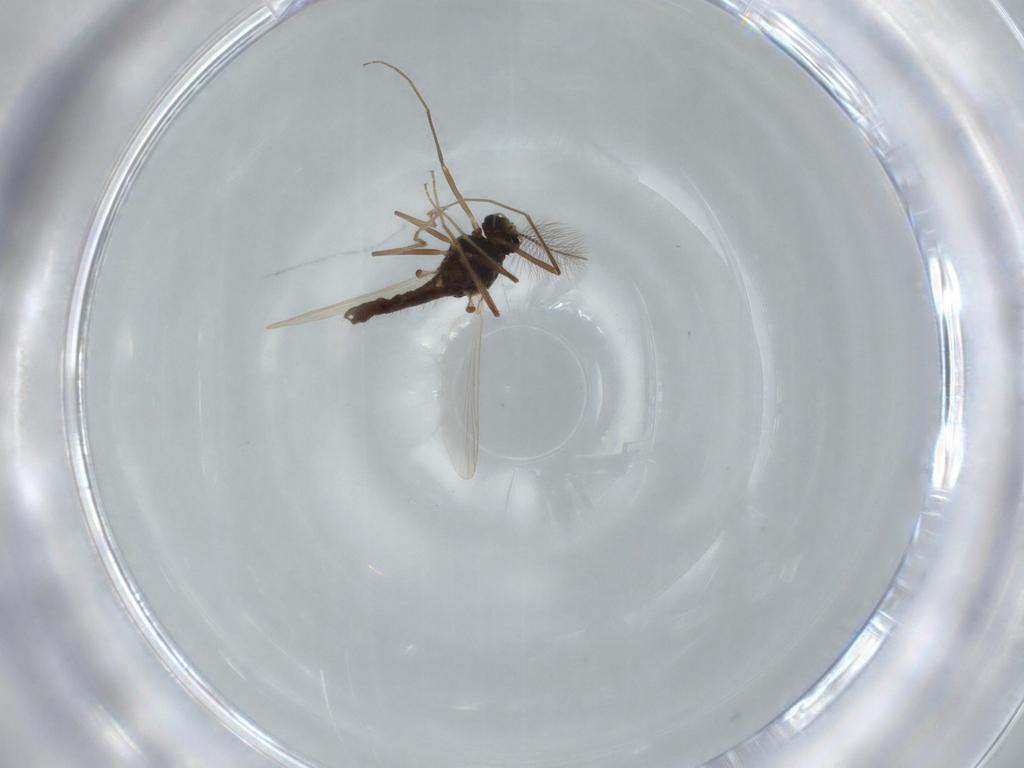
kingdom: Animalia
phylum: Arthropoda
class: Insecta
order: Diptera
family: Chironomidae
